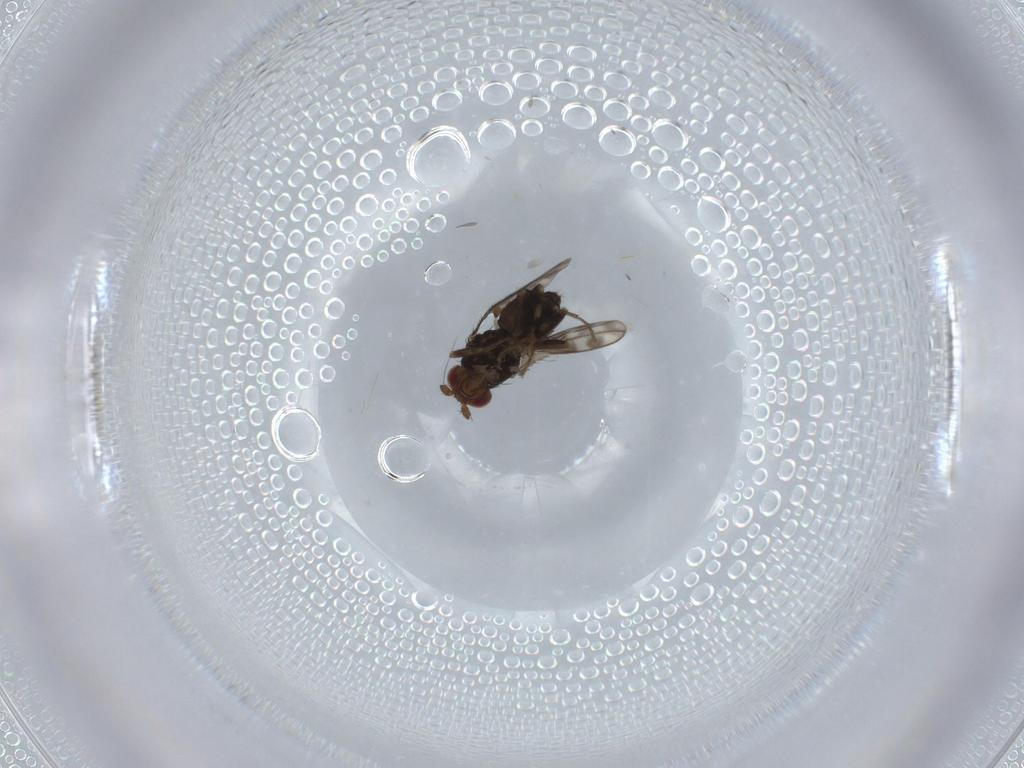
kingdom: Animalia
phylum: Arthropoda
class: Insecta
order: Diptera
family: Sphaeroceridae
